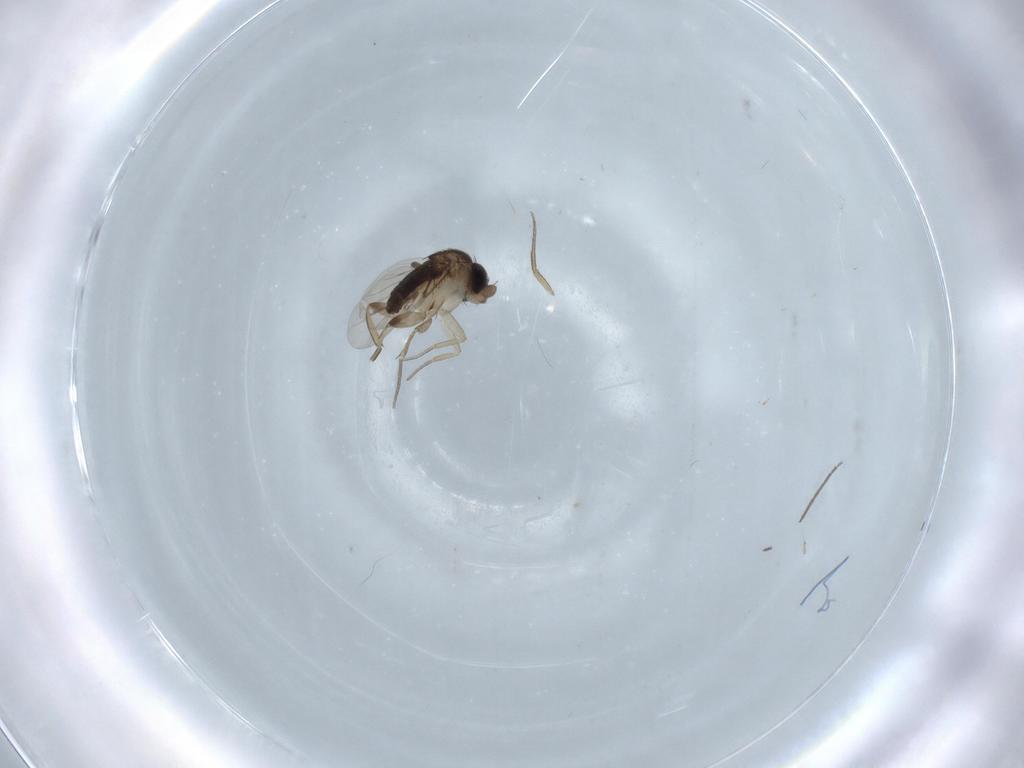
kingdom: Animalia
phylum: Arthropoda
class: Insecta
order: Diptera
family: Phoridae
